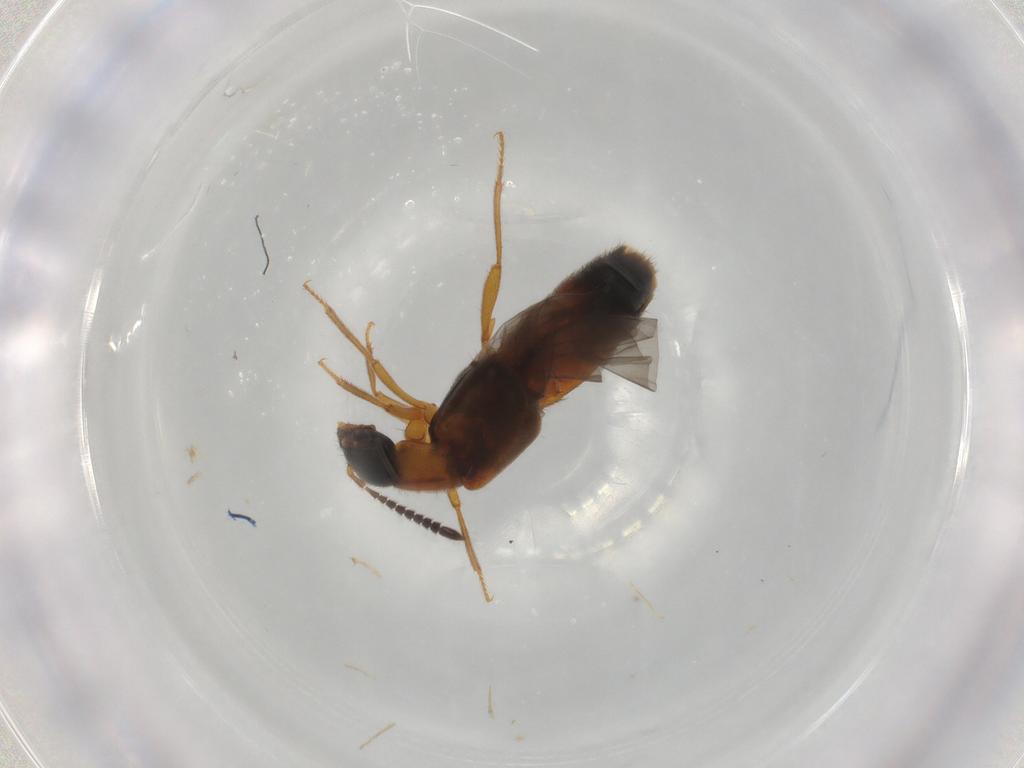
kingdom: Animalia
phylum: Arthropoda
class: Insecta
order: Coleoptera
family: Staphylinidae
